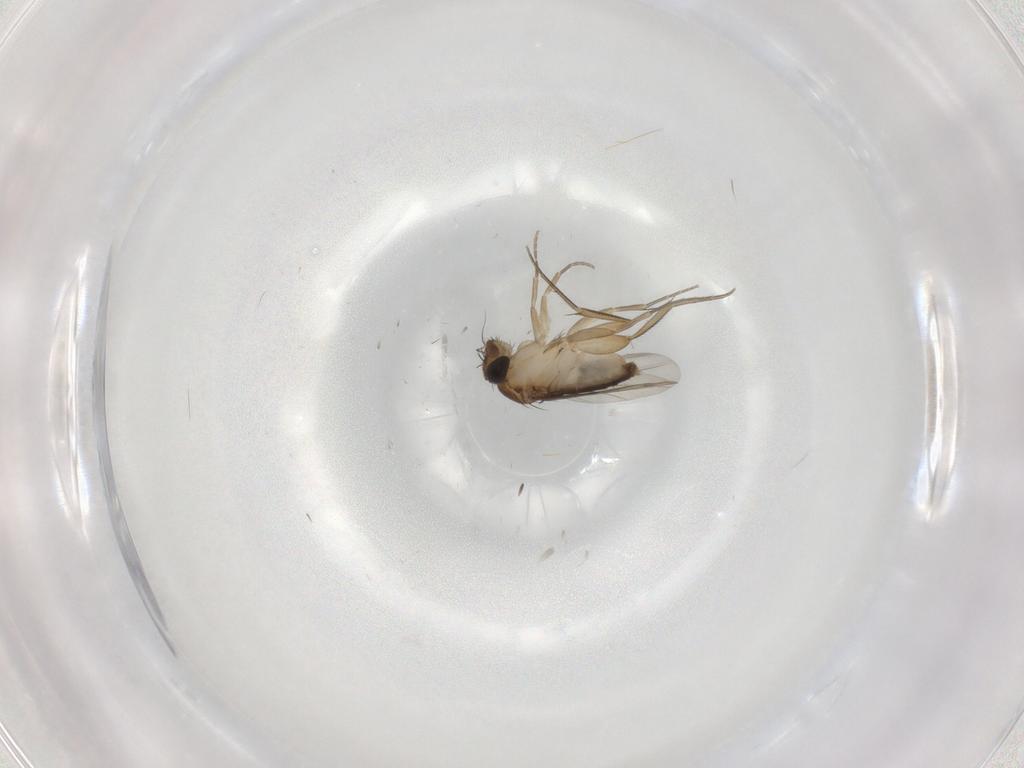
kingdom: Animalia
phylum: Arthropoda
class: Insecta
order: Diptera
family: Phoridae
